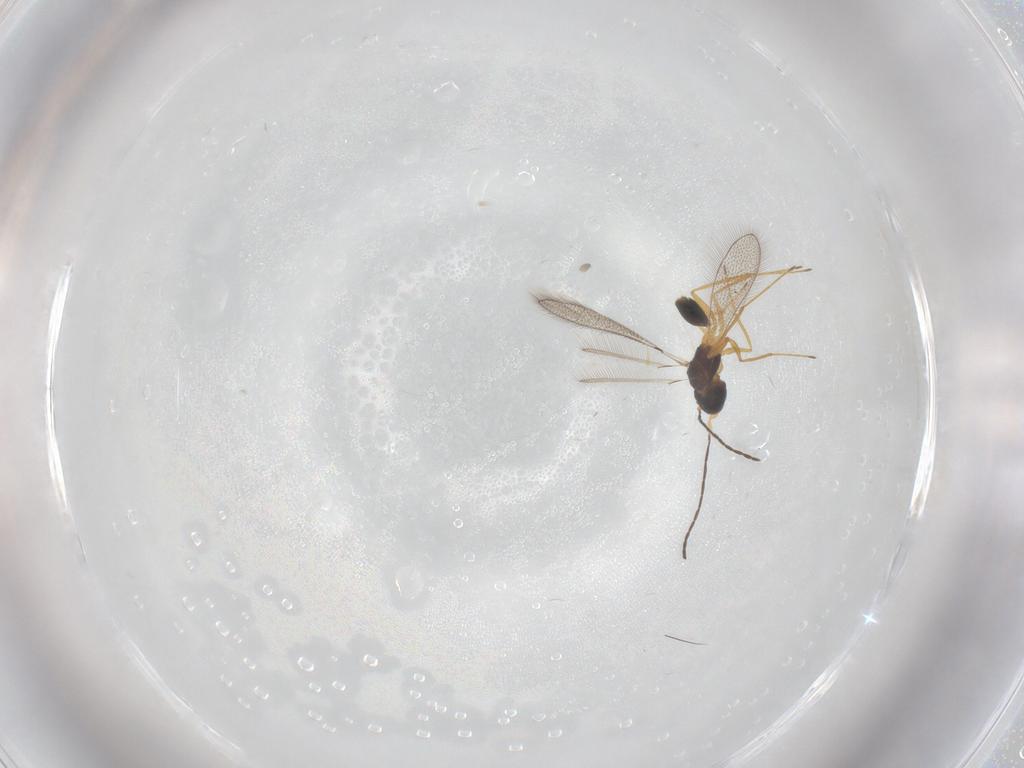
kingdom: Animalia
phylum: Arthropoda
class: Insecta
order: Hymenoptera
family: Mymaridae
